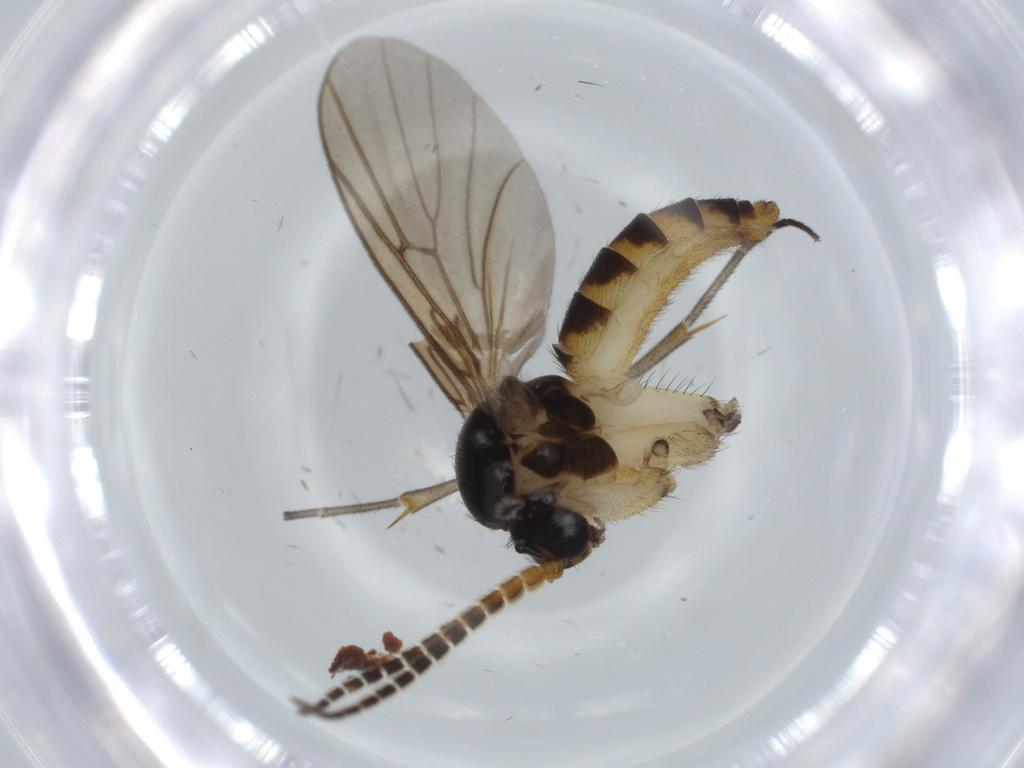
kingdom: Animalia
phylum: Arthropoda
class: Insecta
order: Diptera
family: Phoridae
